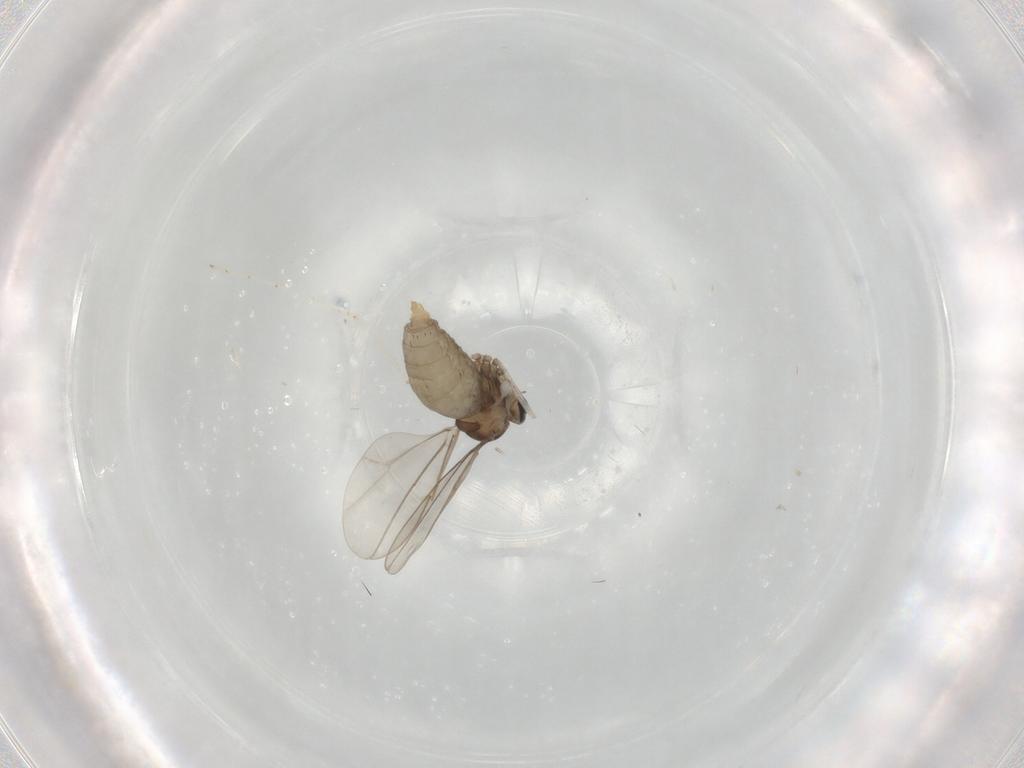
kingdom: Animalia
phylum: Arthropoda
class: Insecta
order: Diptera
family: Cecidomyiidae
